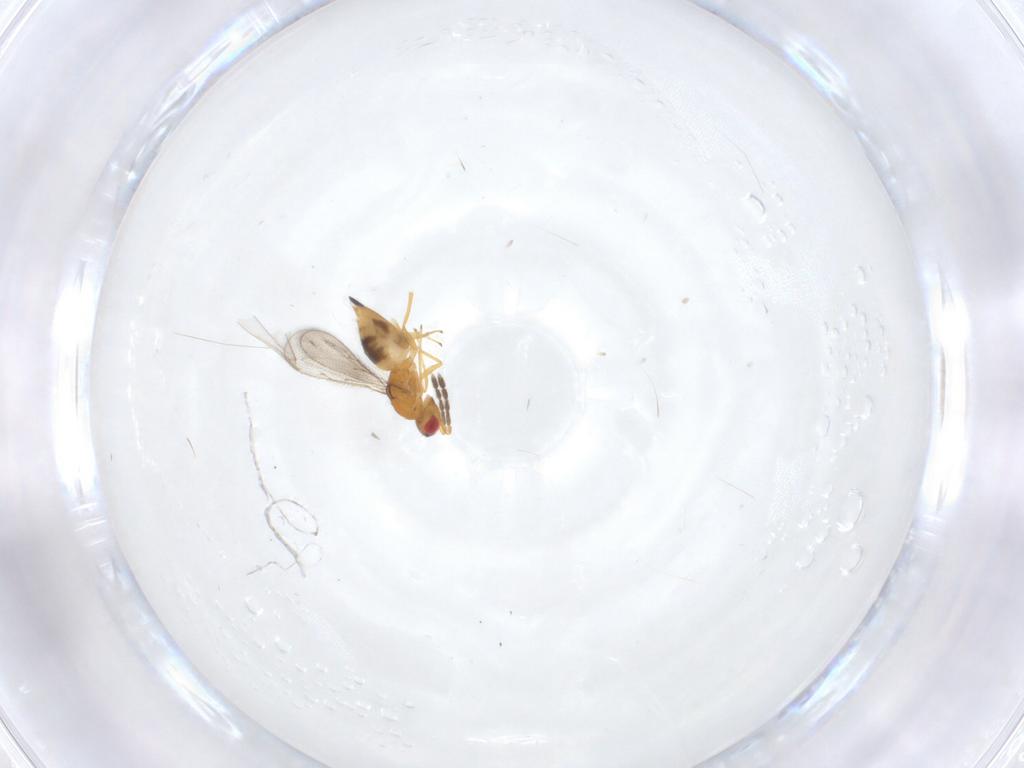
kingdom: Animalia
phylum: Arthropoda
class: Insecta
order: Hymenoptera
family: Eulophidae
